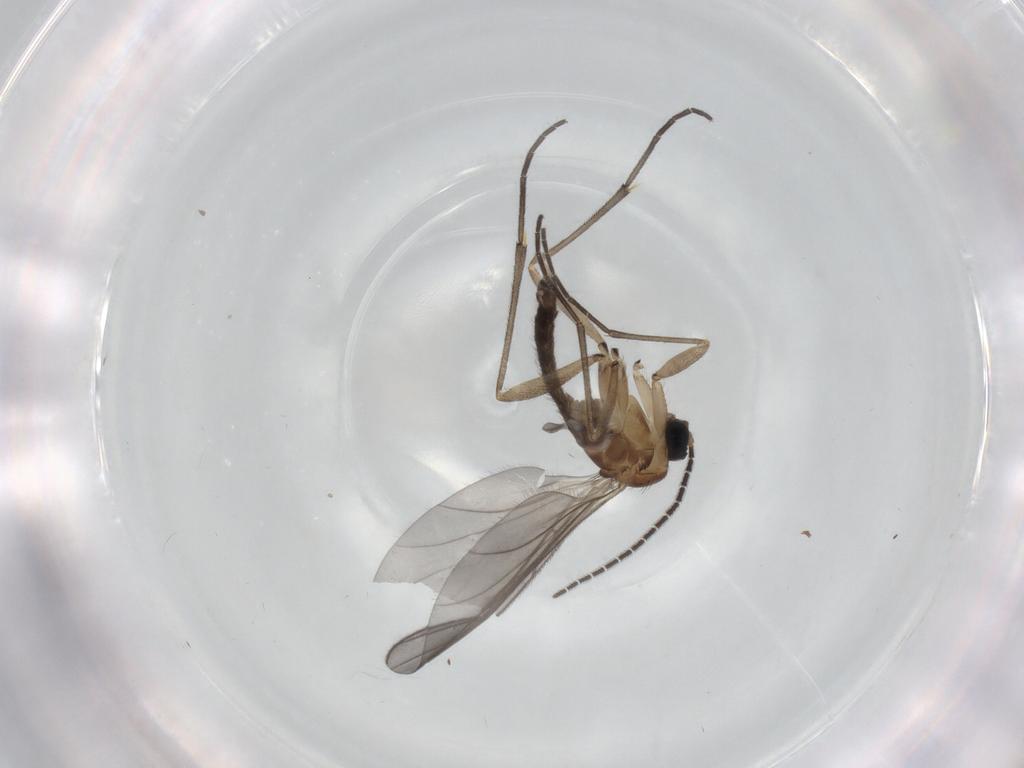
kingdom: Animalia
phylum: Arthropoda
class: Insecta
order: Diptera
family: Sciaridae
